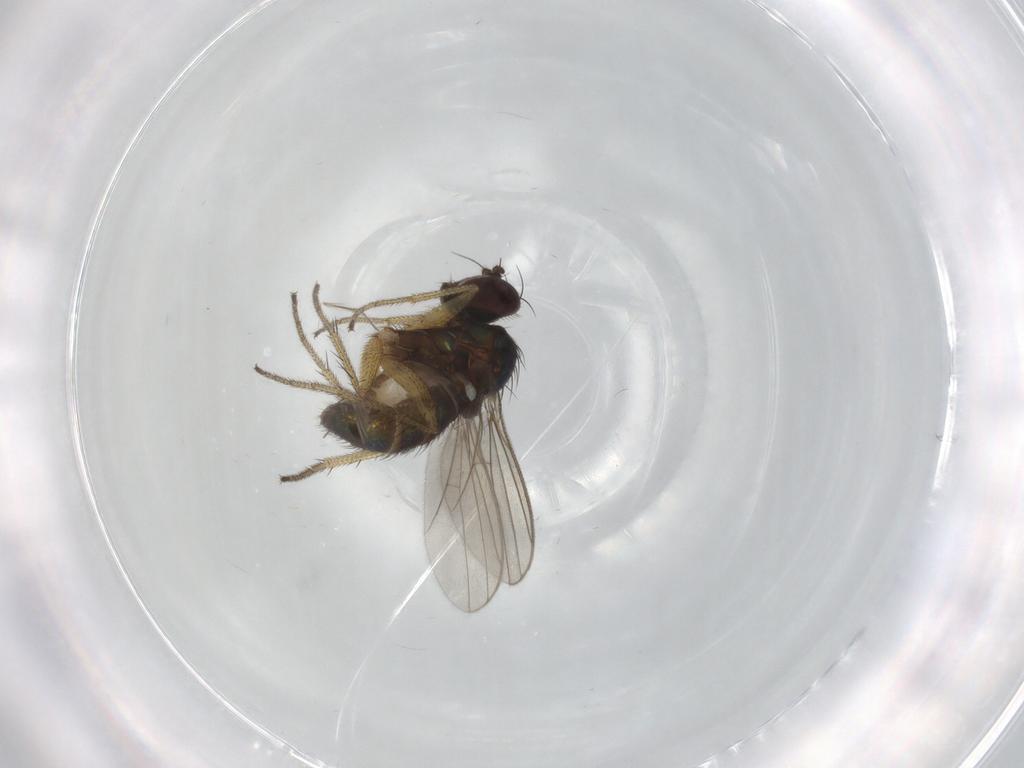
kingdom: Animalia
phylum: Arthropoda
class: Insecta
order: Diptera
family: Chironomidae
